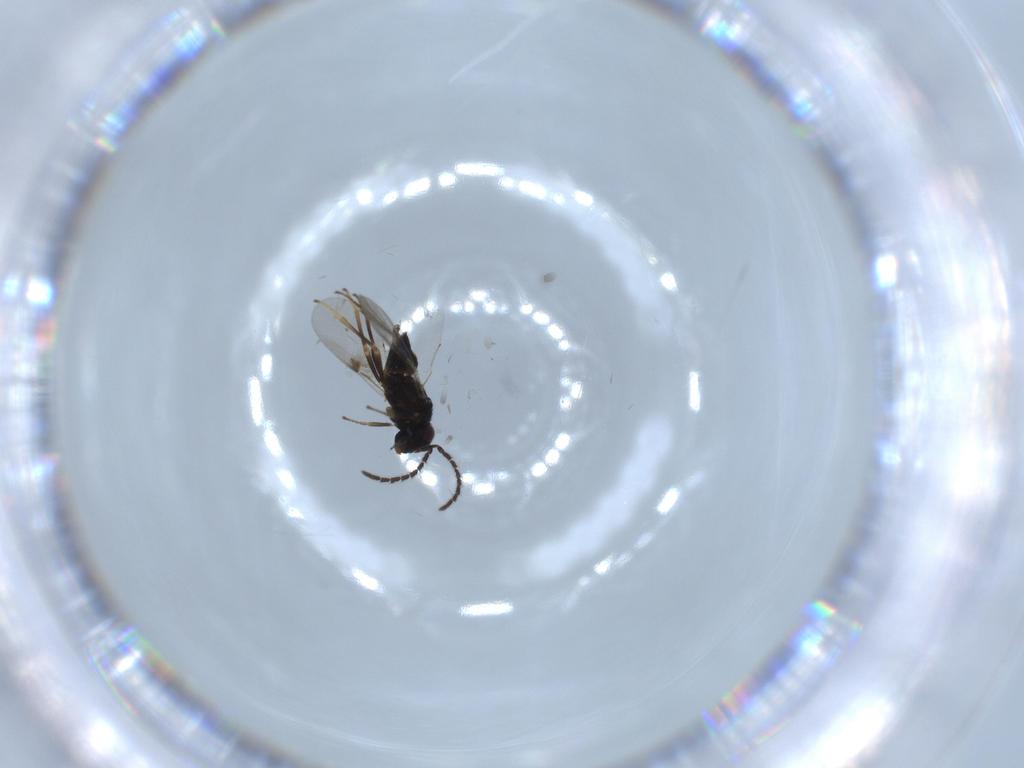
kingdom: Animalia
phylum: Arthropoda
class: Insecta
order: Hymenoptera
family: Encyrtidae
